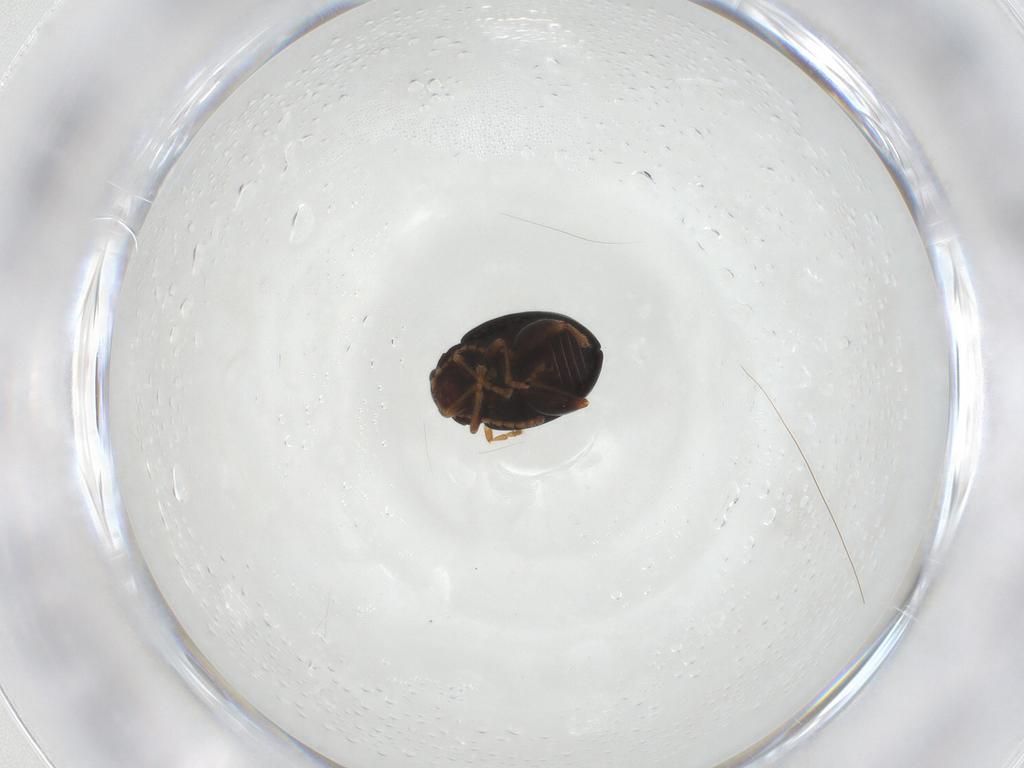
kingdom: Animalia
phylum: Arthropoda
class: Insecta
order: Coleoptera
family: Chrysomelidae
